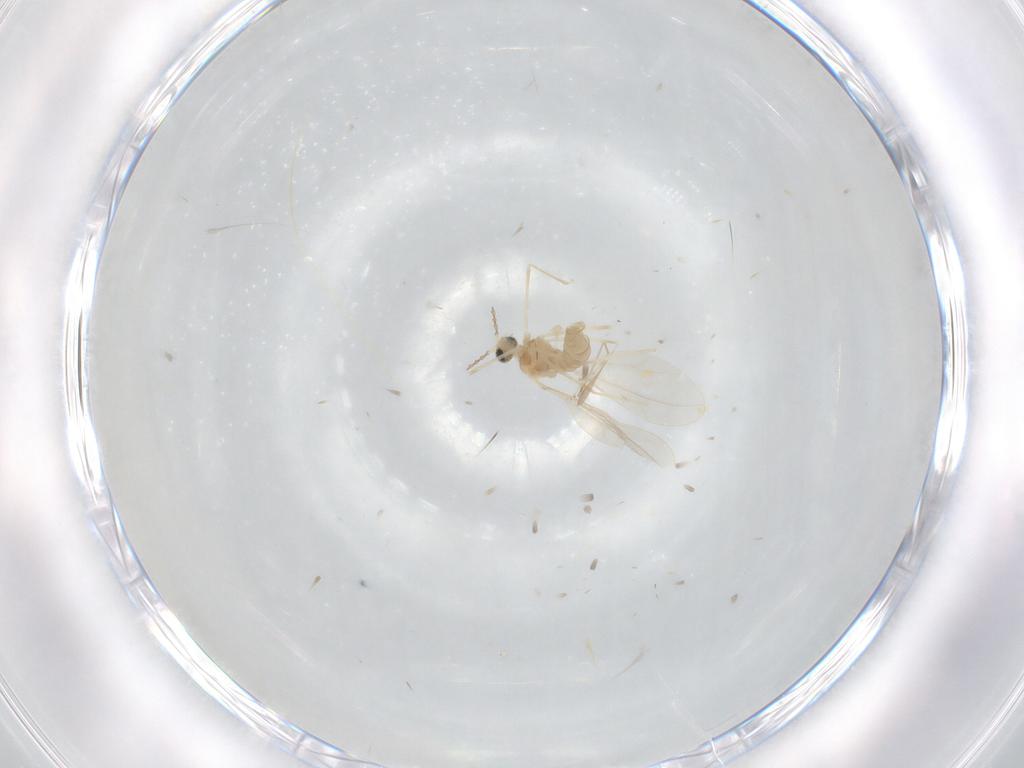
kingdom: Animalia
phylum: Arthropoda
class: Insecta
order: Diptera
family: Cecidomyiidae
